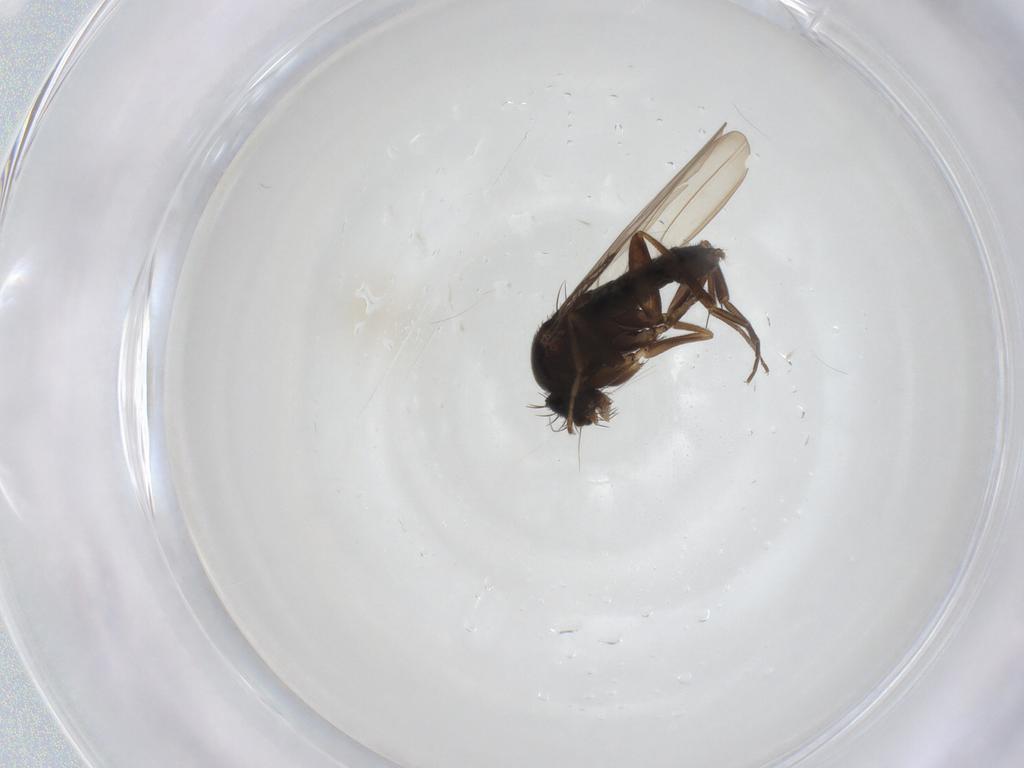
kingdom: Animalia
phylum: Arthropoda
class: Insecta
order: Diptera
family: Phoridae
